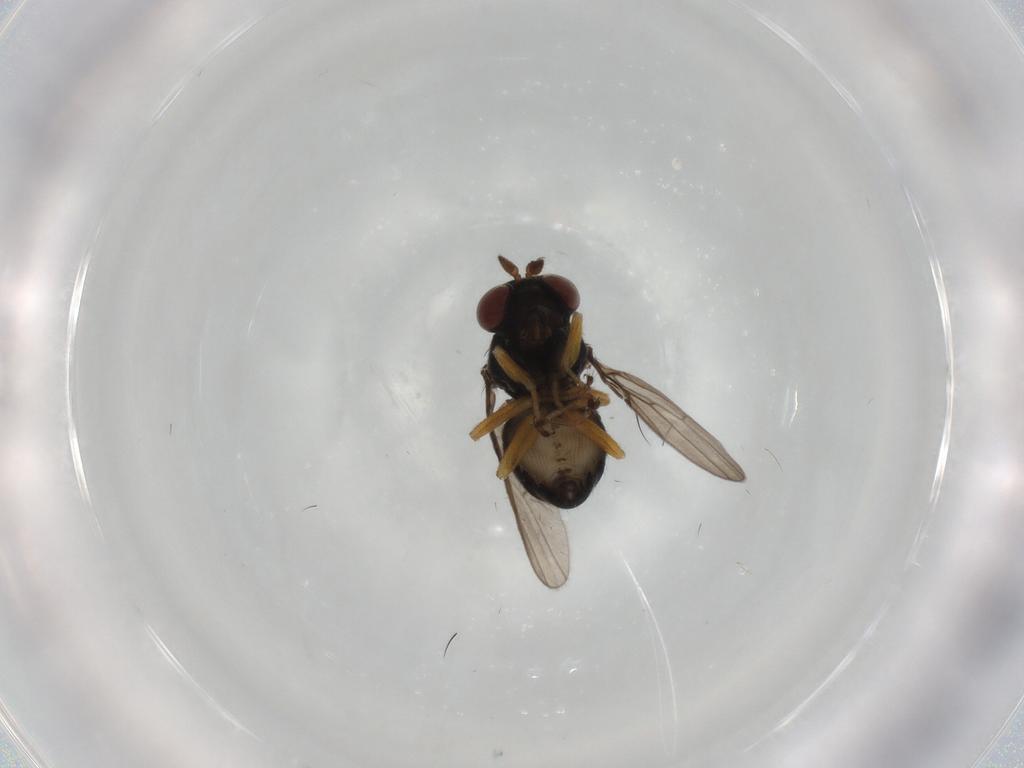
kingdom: Animalia
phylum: Arthropoda
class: Insecta
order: Diptera
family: Ephydridae
